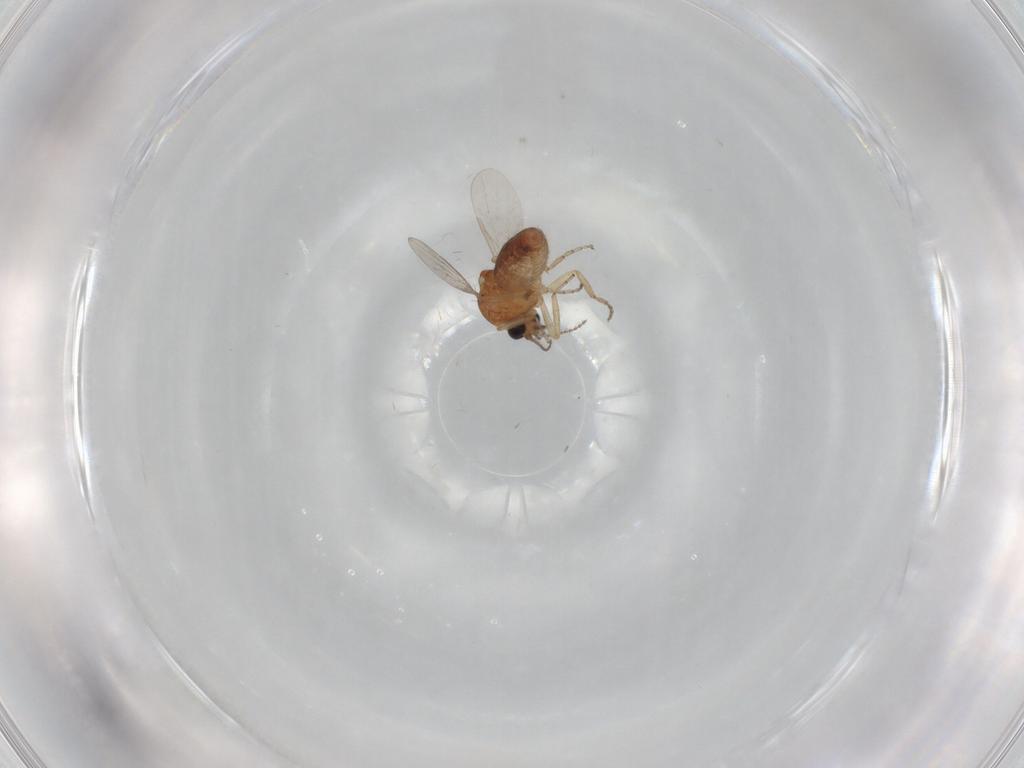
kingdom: Animalia
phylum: Arthropoda
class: Insecta
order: Diptera
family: Ceratopogonidae
